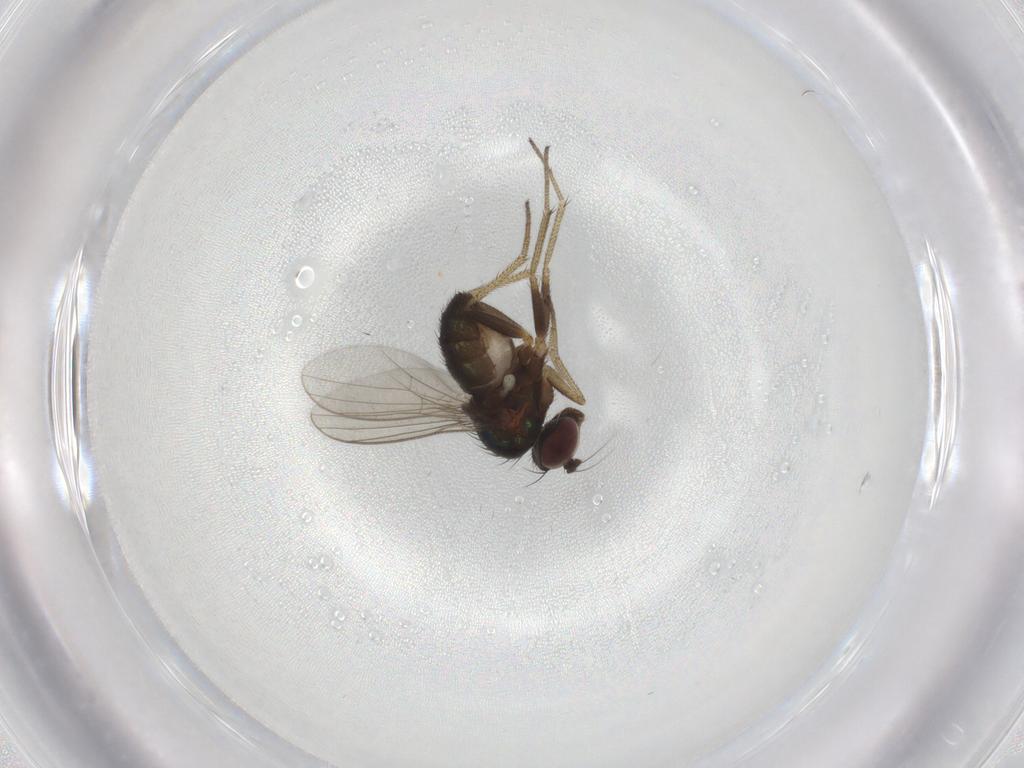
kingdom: Animalia
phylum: Arthropoda
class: Insecta
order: Diptera
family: Dolichopodidae
